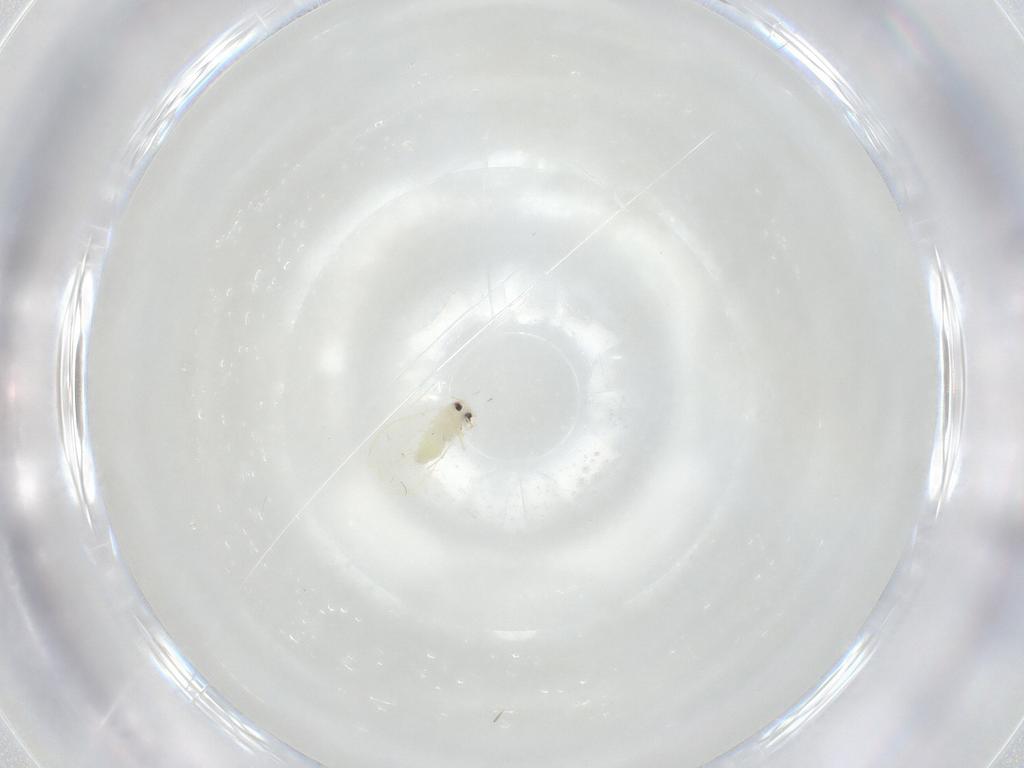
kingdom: Animalia
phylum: Arthropoda
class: Insecta
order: Hemiptera
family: Aleyrodidae
